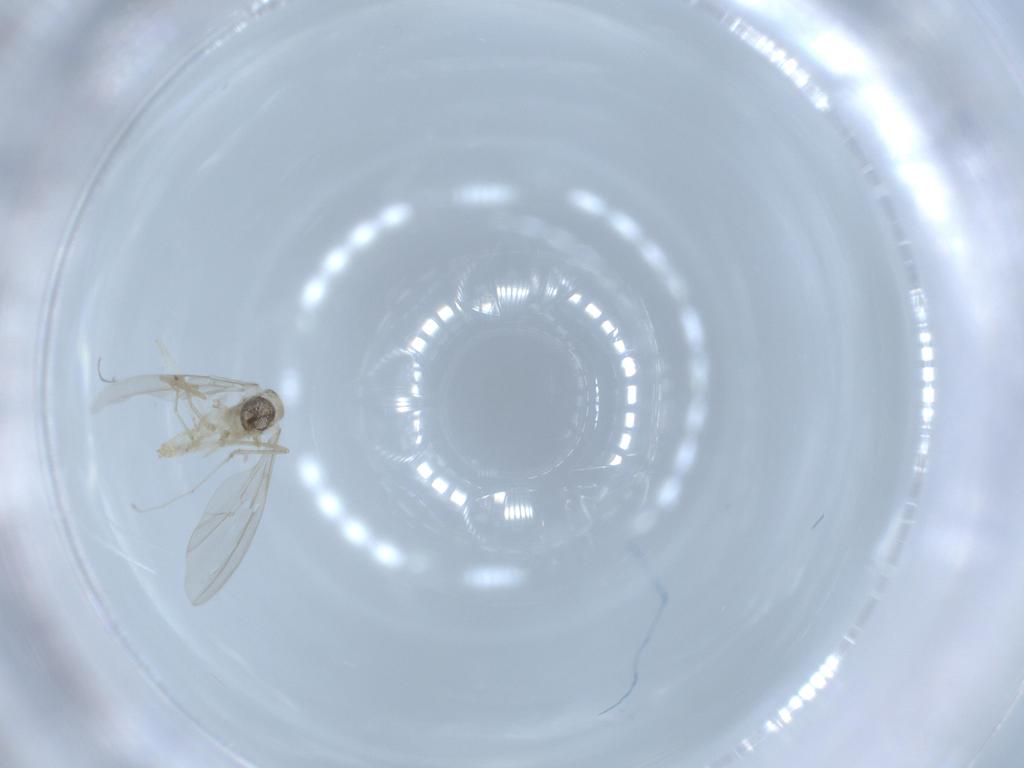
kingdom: Animalia
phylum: Arthropoda
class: Insecta
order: Diptera
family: Cecidomyiidae
